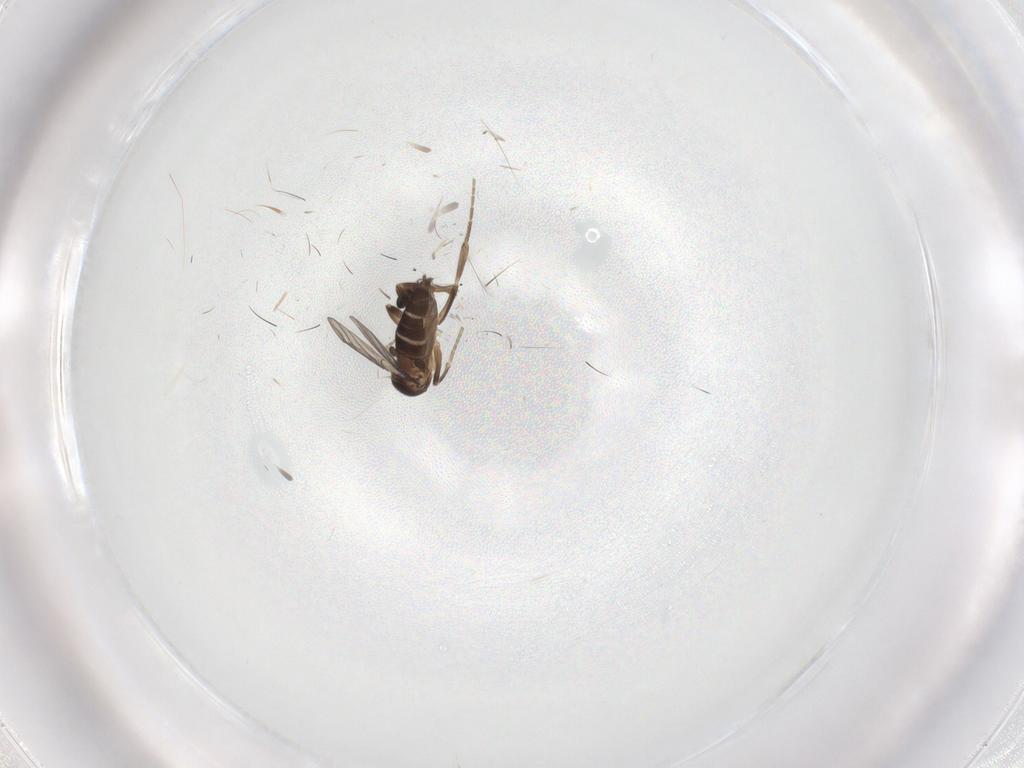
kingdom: Animalia
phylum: Arthropoda
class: Insecta
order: Diptera
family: Phoridae
